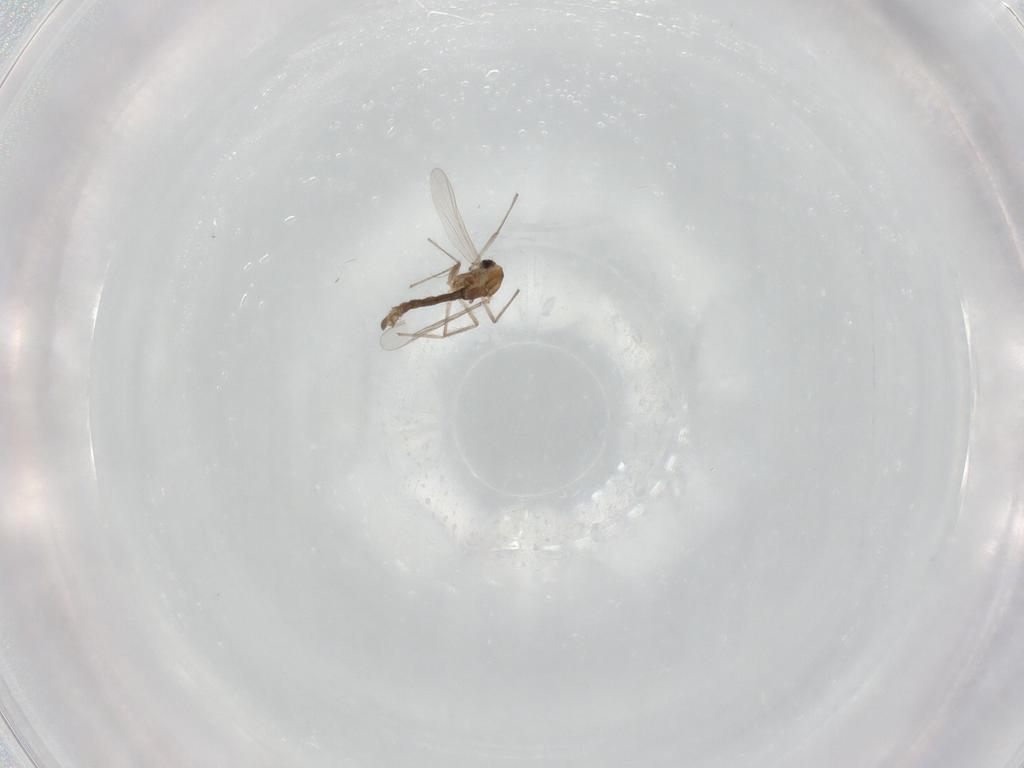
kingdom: Animalia
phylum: Arthropoda
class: Insecta
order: Diptera
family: Chironomidae
